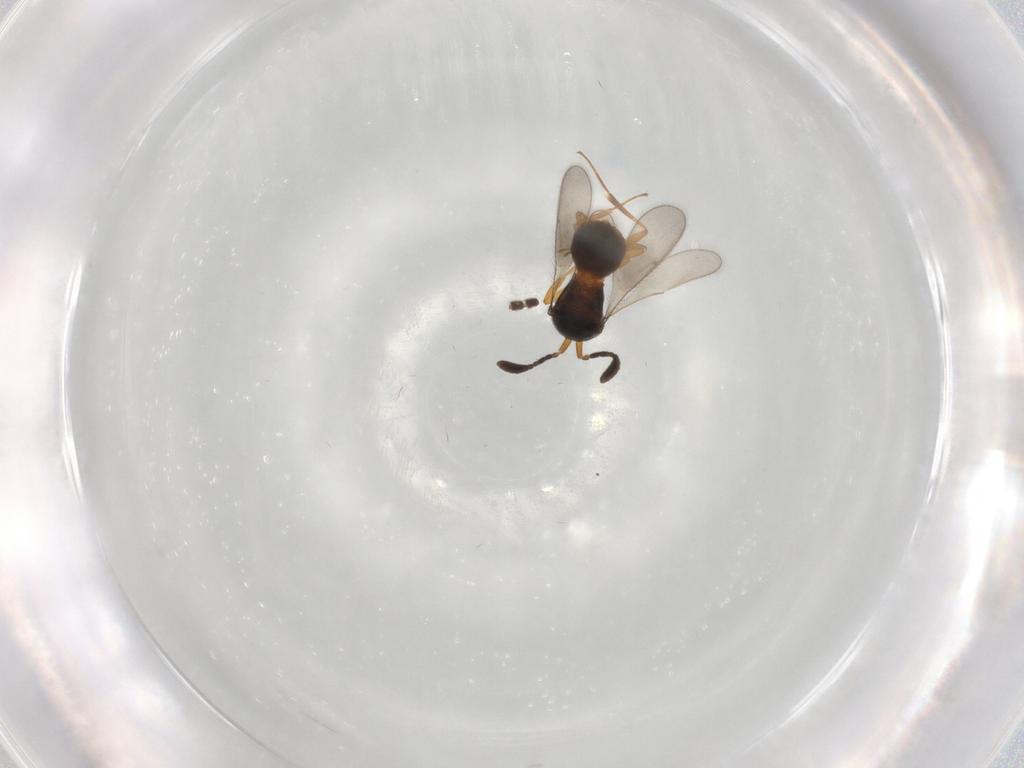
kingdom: Animalia
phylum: Arthropoda
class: Insecta
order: Hymenoptera
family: Scelionidae
